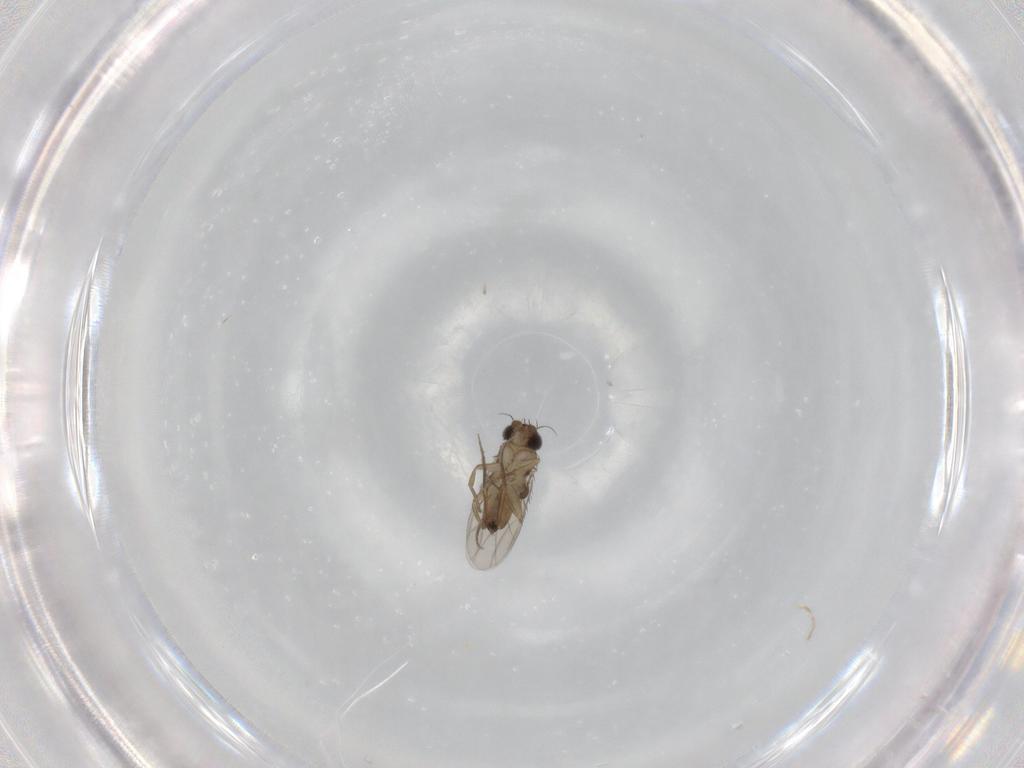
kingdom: Animalia
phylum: Arthropoda
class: Insecta
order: Diptera
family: Phoridae
